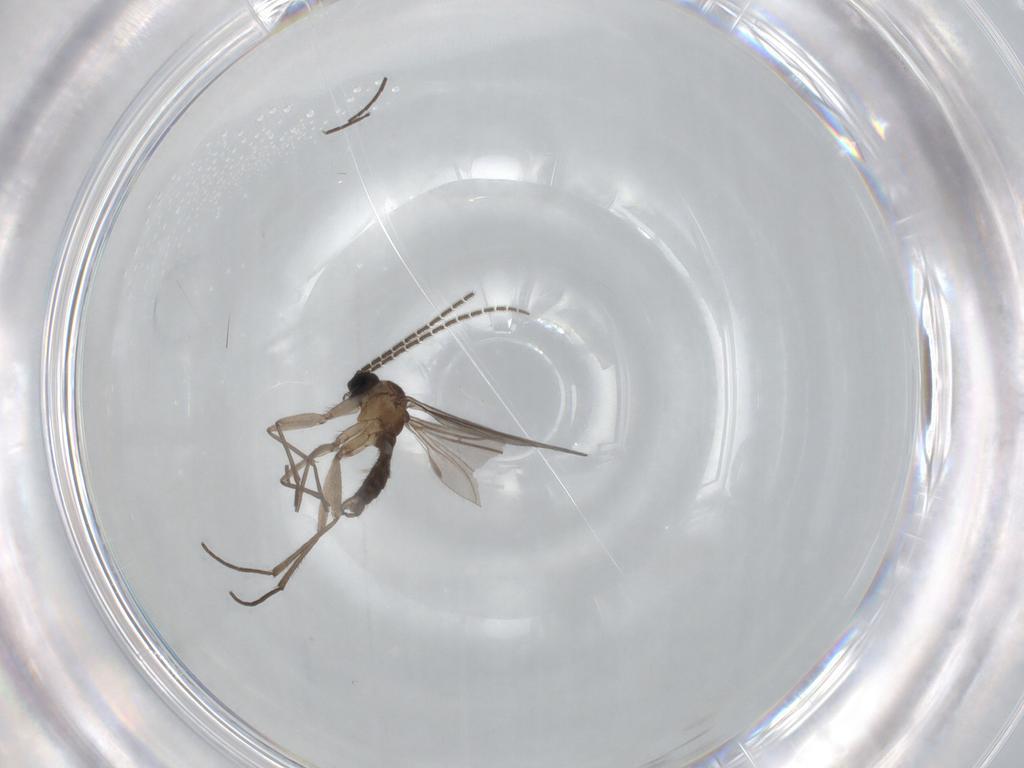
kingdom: Animalia
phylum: Arthropoda
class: Insecta
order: Diptera
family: Sciaridae
